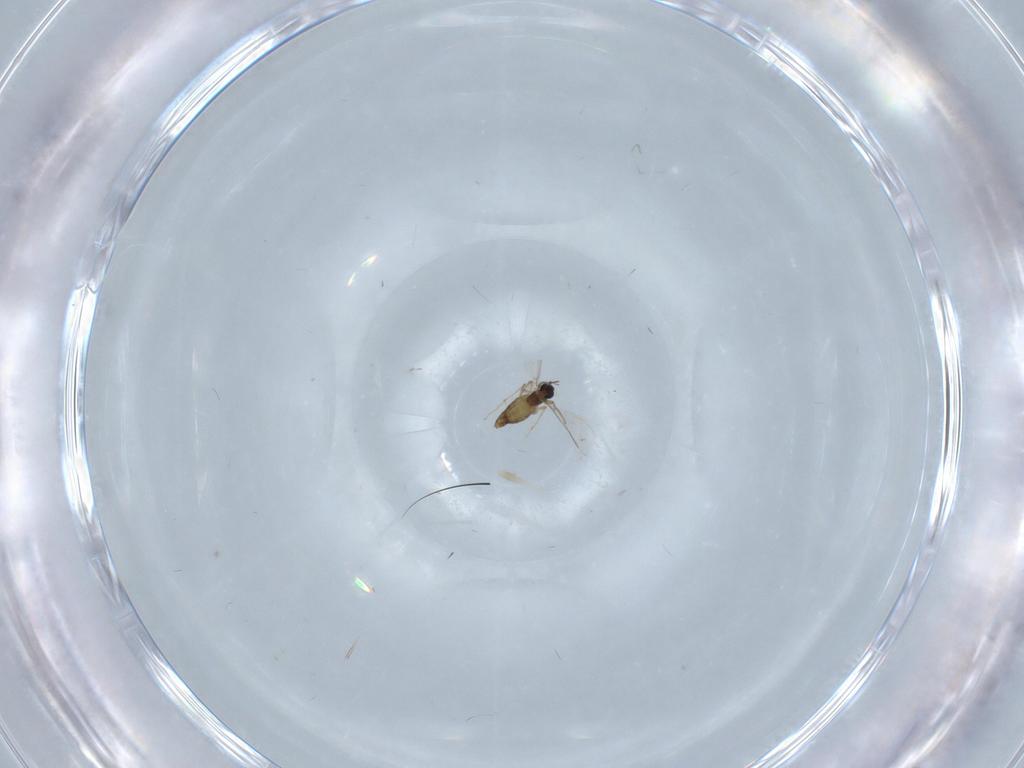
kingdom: Animalia
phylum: Arthropoda
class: Insecta
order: Diptera
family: Chironomidae
